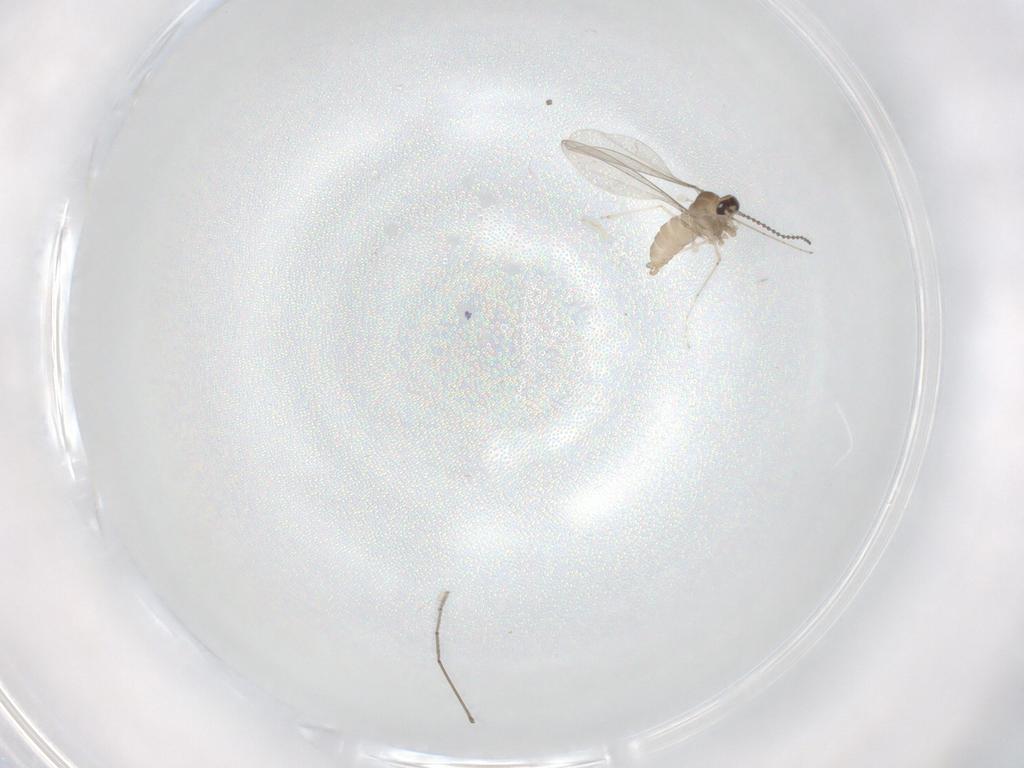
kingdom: Animalia
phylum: Arthropoda
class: Insecta
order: Diptera
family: Cecidomyiidae
